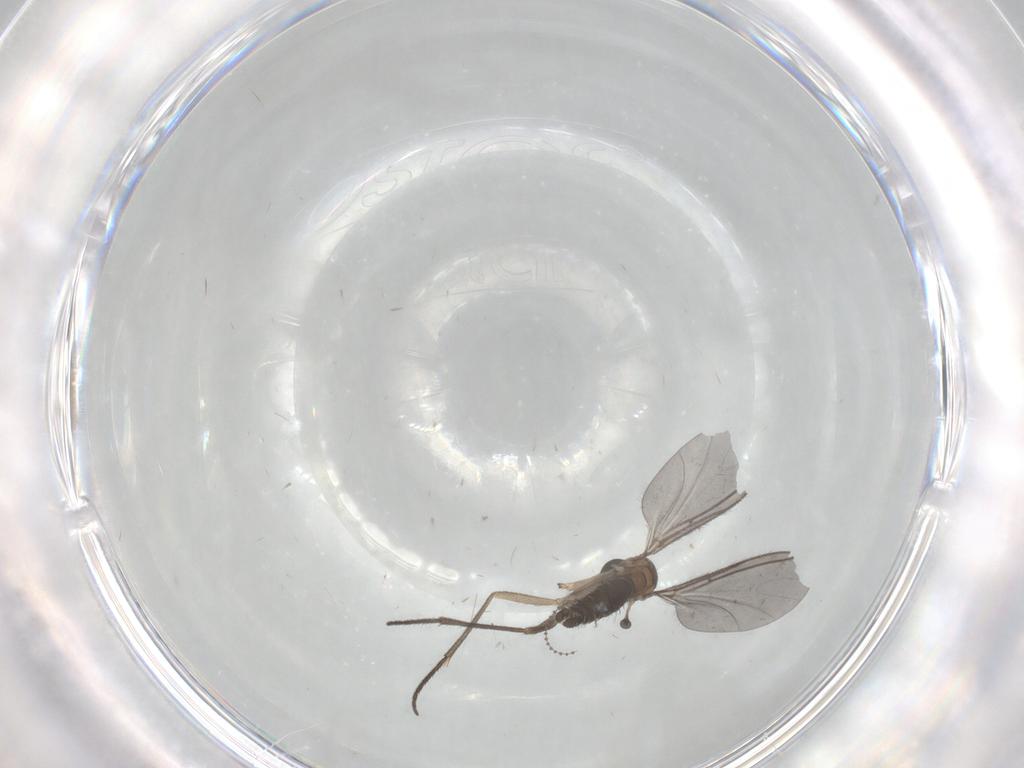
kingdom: Animalia
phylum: Arthropoda
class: Insecta
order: Diptera
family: Sciaridae
